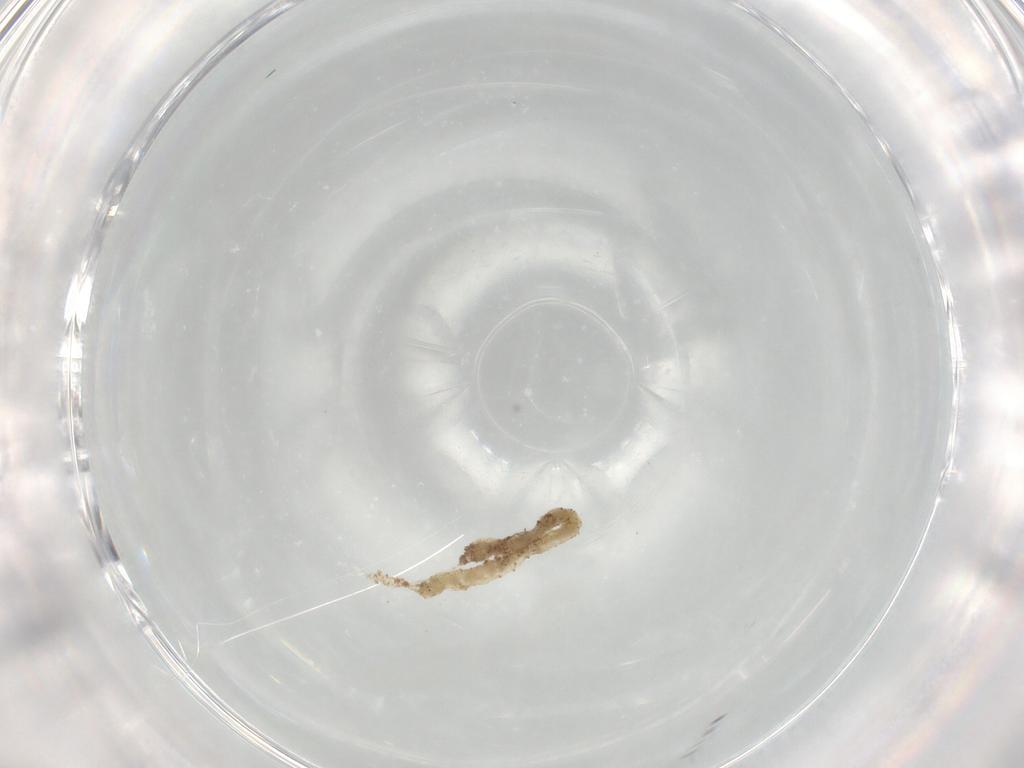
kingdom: Animalia
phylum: Arthropoda
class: Insecta
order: Diptera
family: Chironomidae
